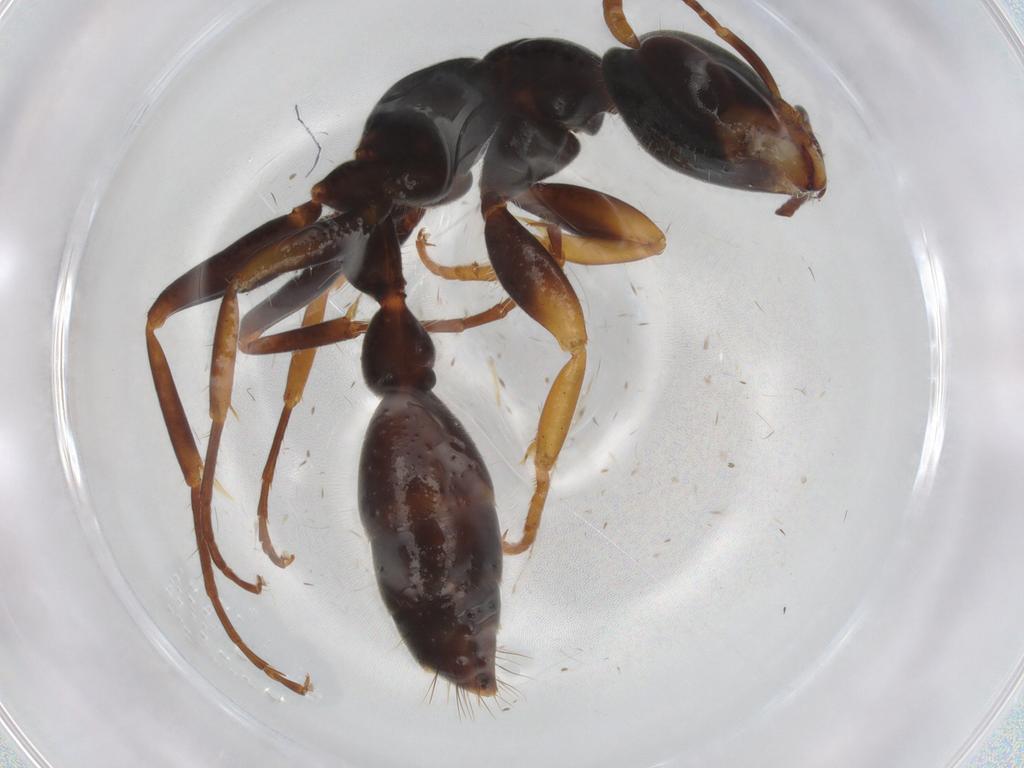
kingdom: Animalia
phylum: Arthropoda
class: Insecta
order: Hymenoptera
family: Formicidae
